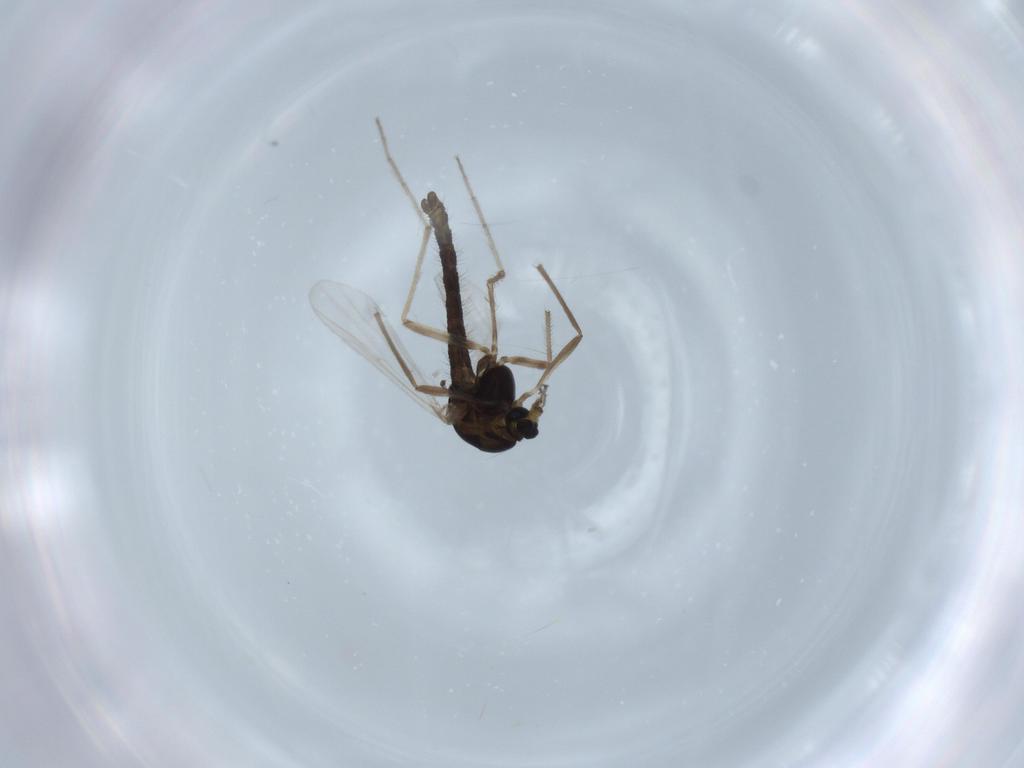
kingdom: Animalia
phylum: Arthropoda
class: Insecta
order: Diptera
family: Chironomidae
